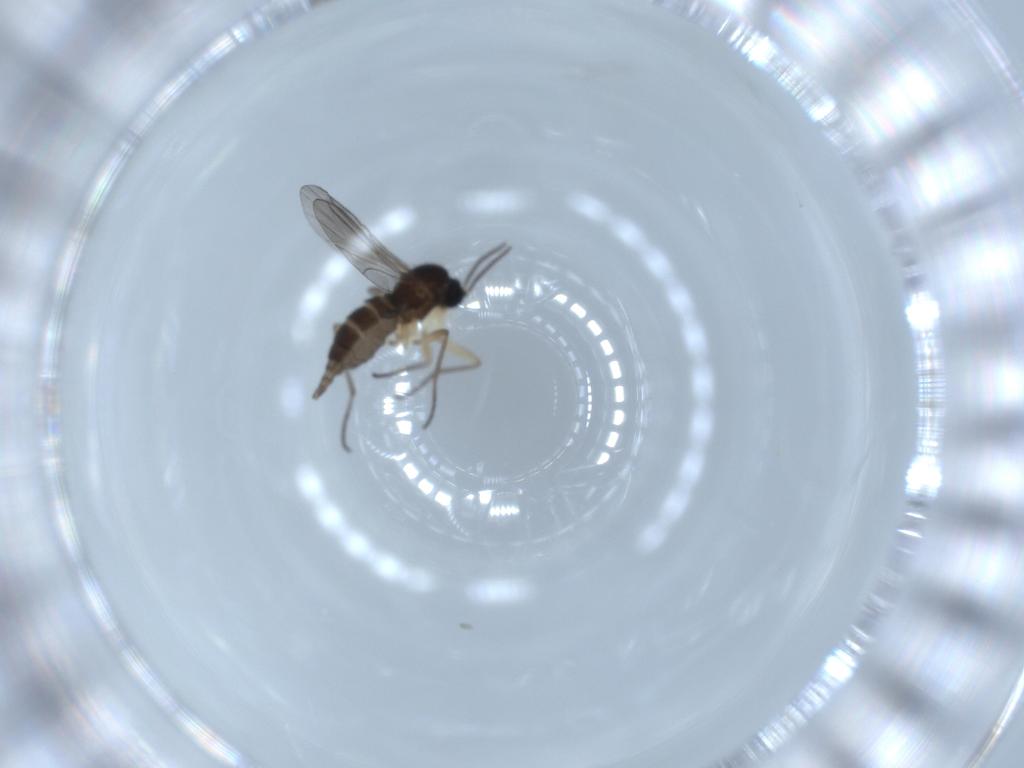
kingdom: Animalia
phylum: Arthropoda
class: Insecta
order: Diptera
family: Sciaridae
